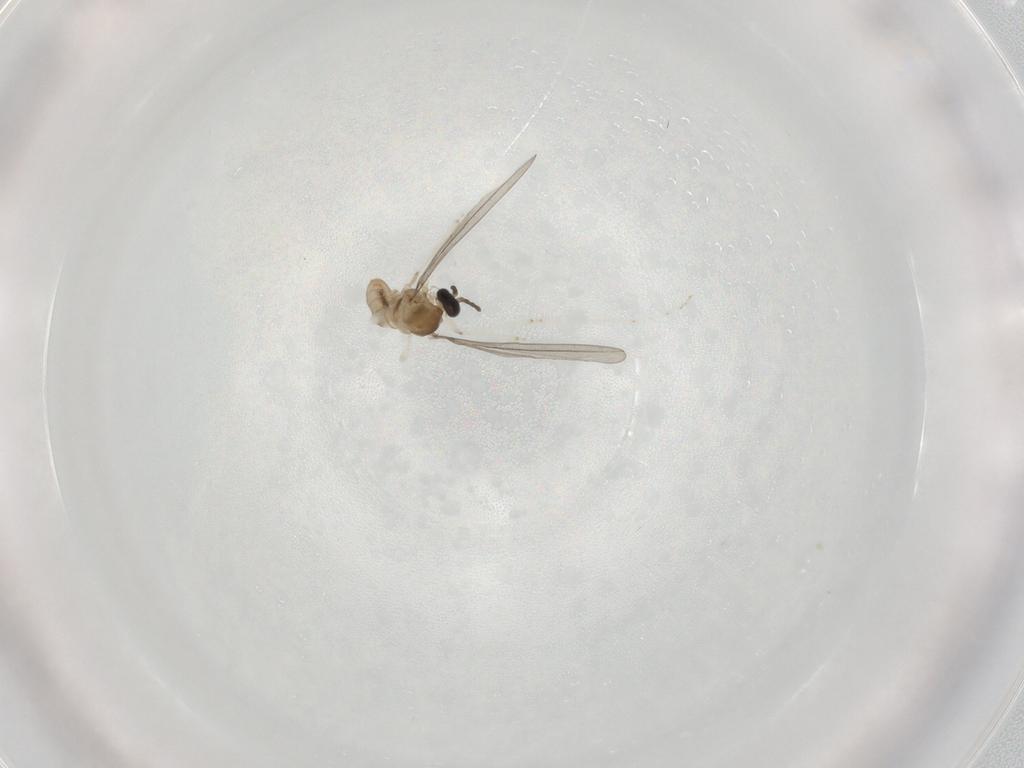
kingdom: Animalia
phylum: Arthropoda
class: Insecta
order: Diptera
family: Cecidomyiidae
